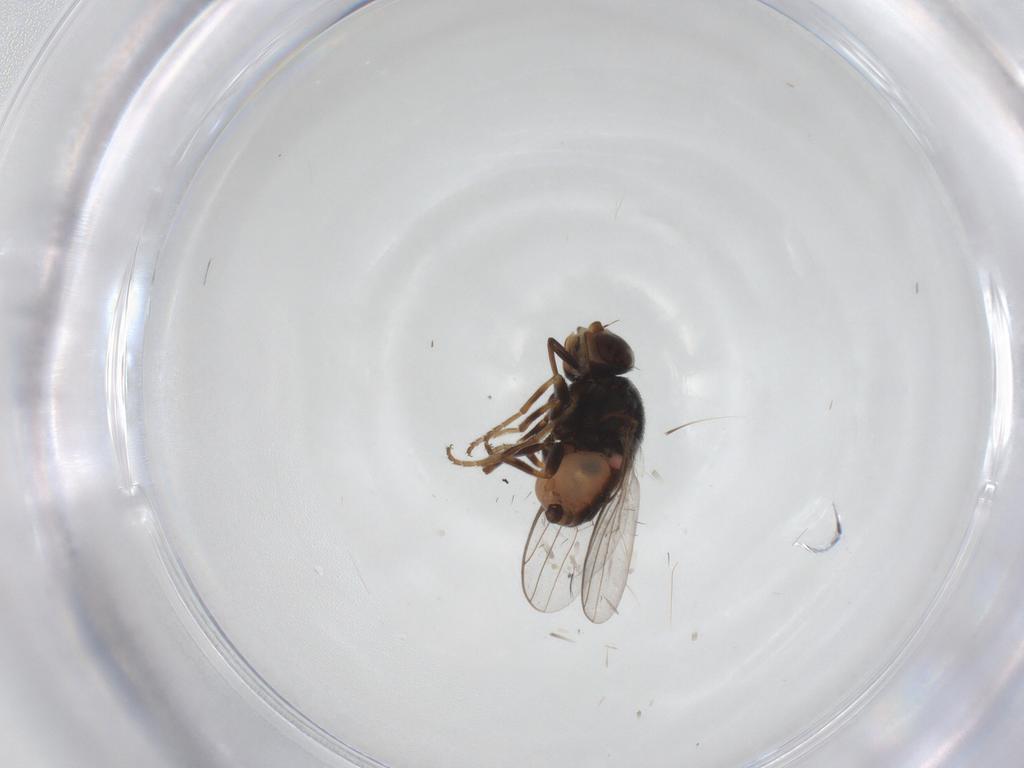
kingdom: Animalia
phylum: Arthropoda
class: Insecta
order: Diptera
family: Chloropidae
